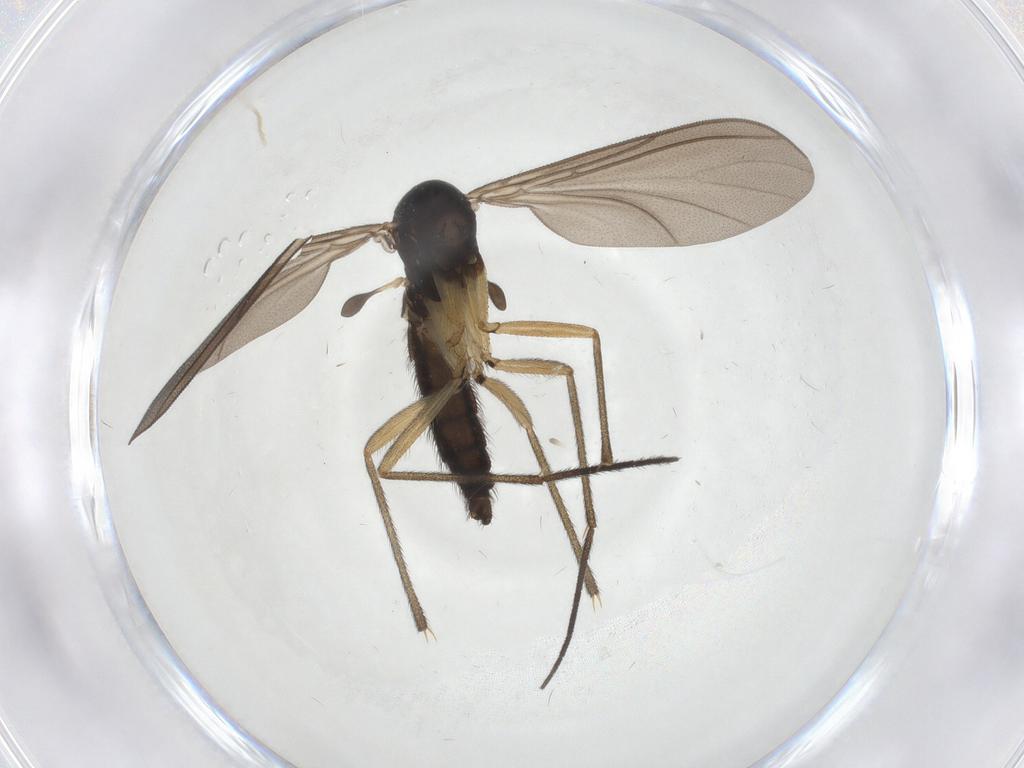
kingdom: Animalia
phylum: Arthropoda
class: Insecta
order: Diptera
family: Sciaridae
